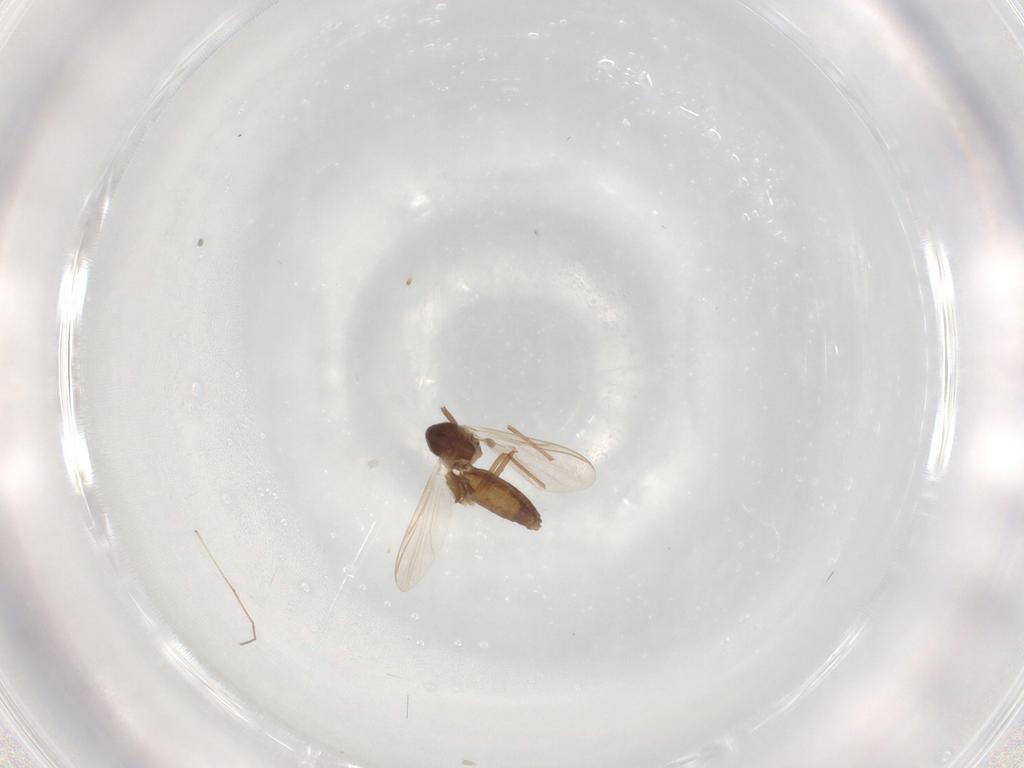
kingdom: Animalia
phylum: Arthropoda
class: Insecta
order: Diptera
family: Chironomidae
